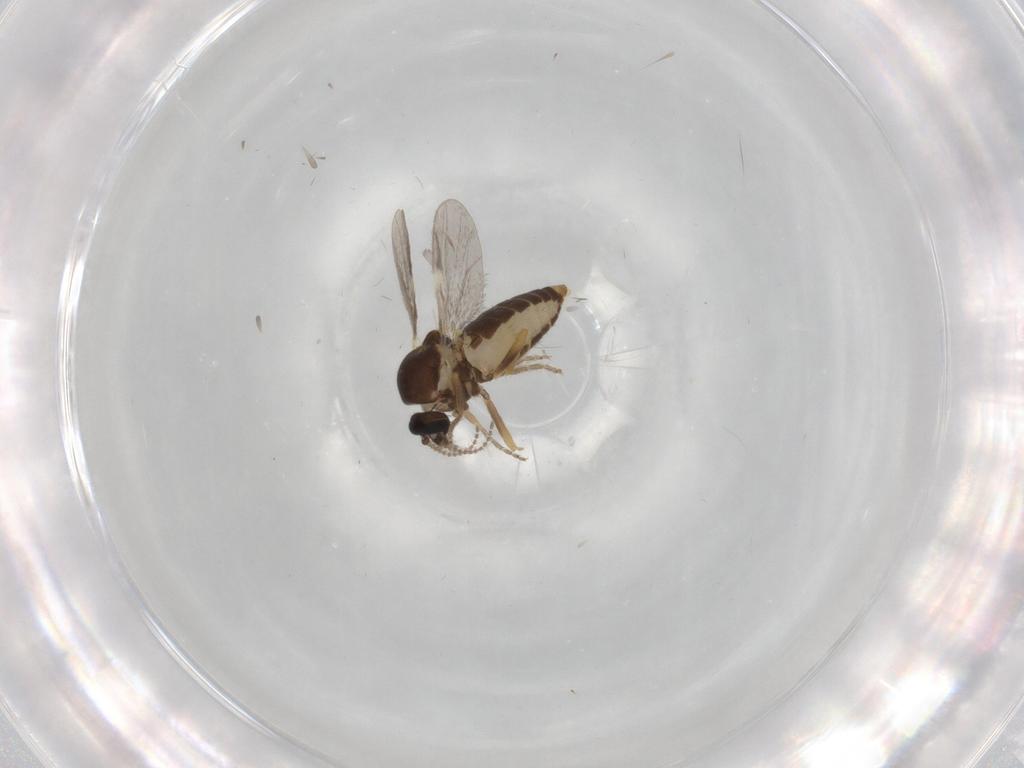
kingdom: Animalia
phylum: Arthropoda
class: Insecta
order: Diptera
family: Ceratopogonidae
